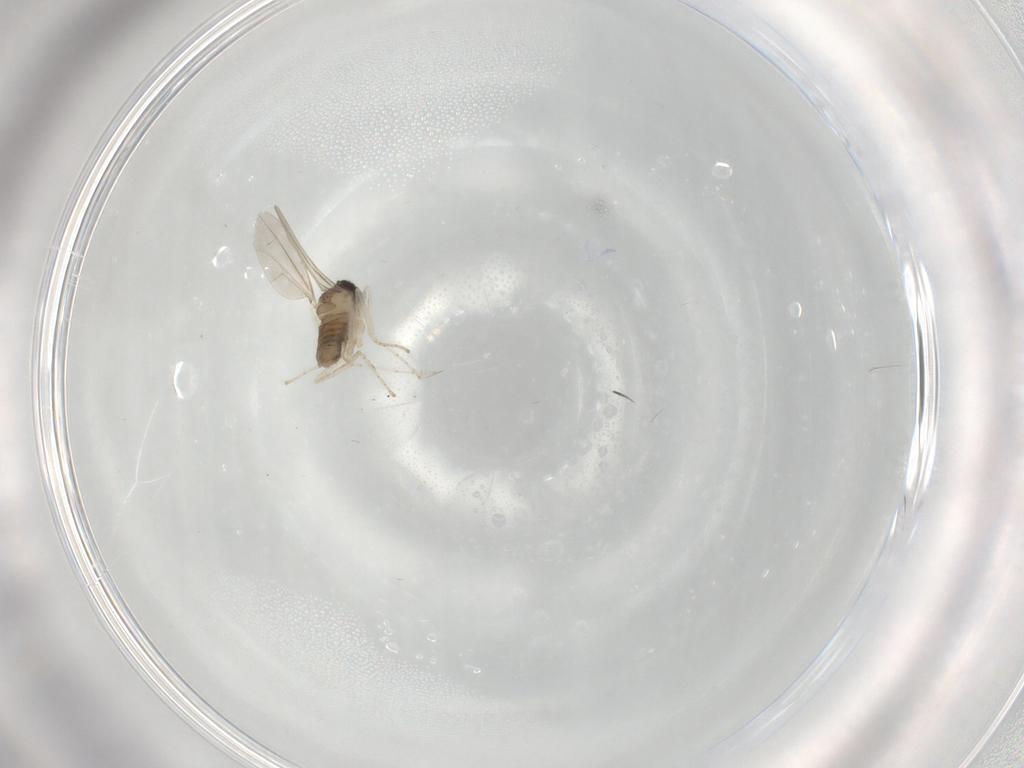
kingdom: Animalia
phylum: Arthropoda
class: Insecta
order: Diptera
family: Cecidomyiidae
